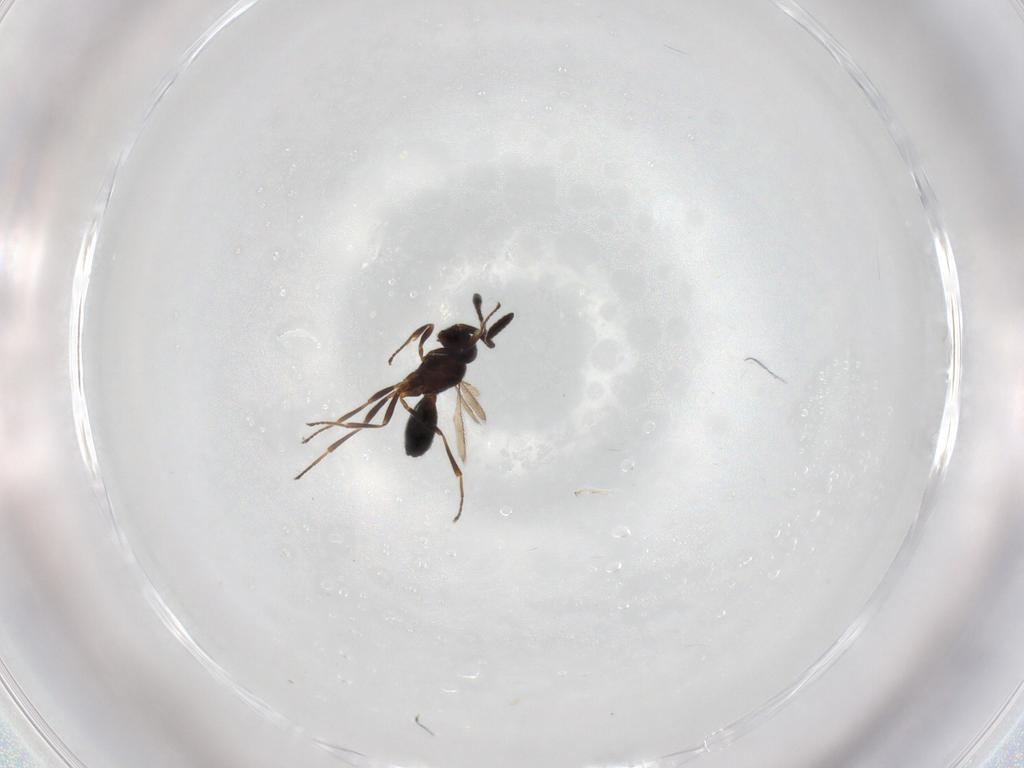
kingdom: Animalia
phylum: Arthropoda
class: Insecta
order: Hymenoptera
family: Scelionidae
